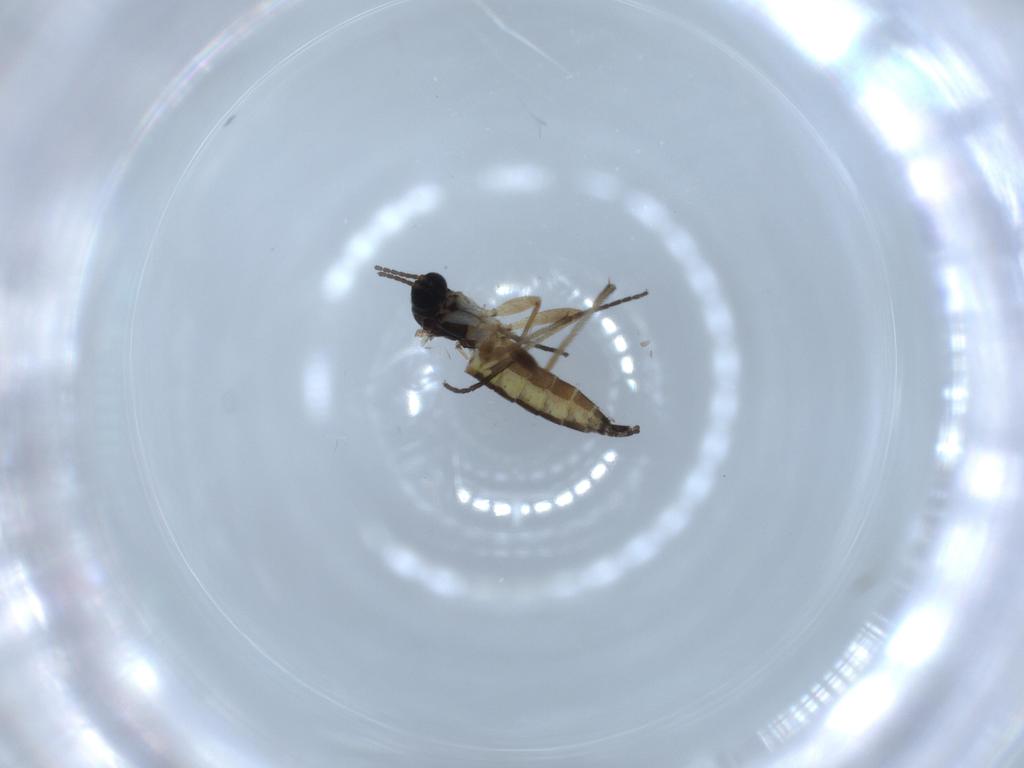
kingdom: Animalia
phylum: Arthropoda
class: Insecta
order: Diptera
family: Sciaridae
